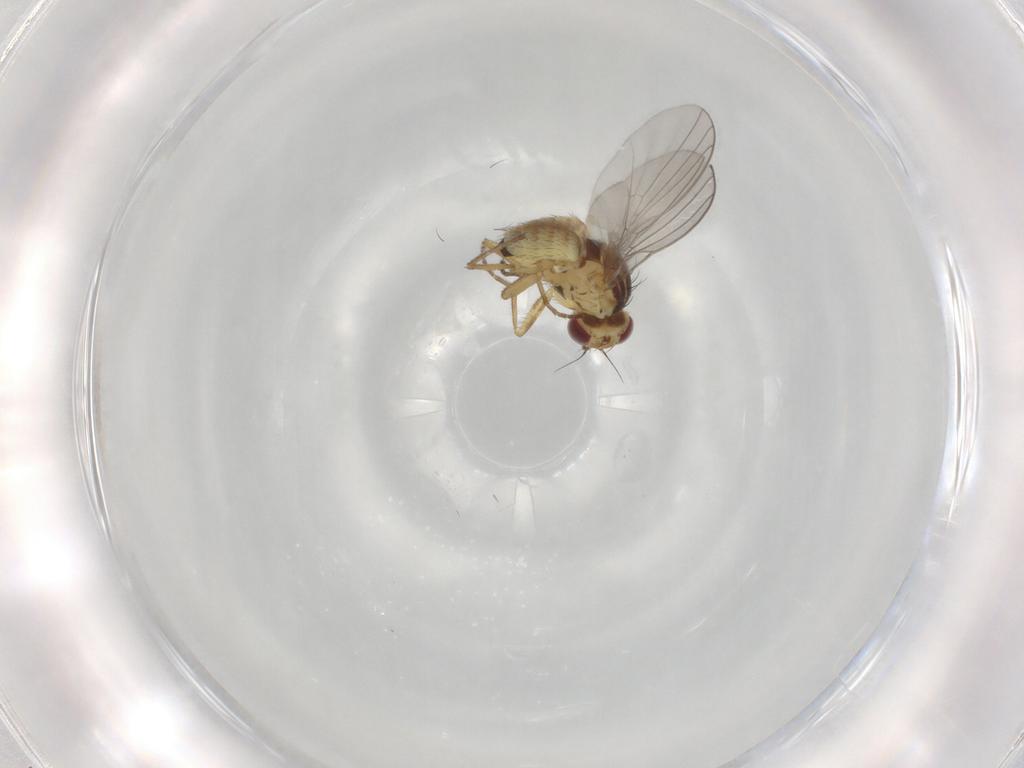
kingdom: Animalia
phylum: Arthropoda
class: Insecta
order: Diptera
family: Agromyzidae
